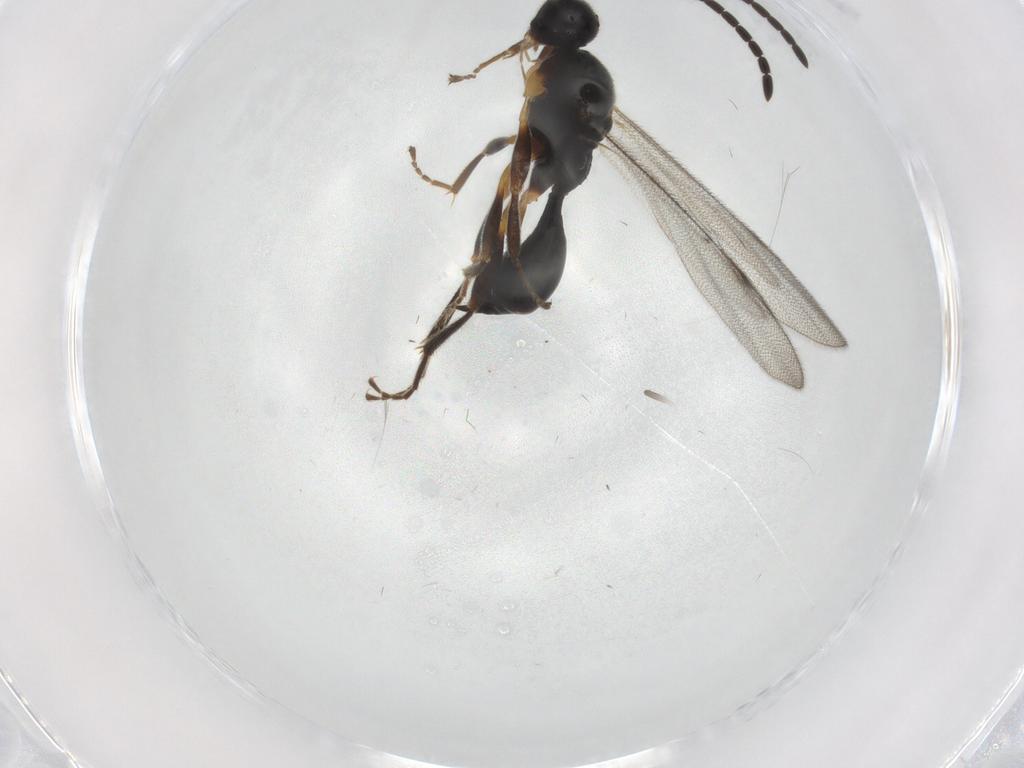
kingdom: Animalia
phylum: Arthropoda
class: Insecta
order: Hymenoptera
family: Proctotrupidae
